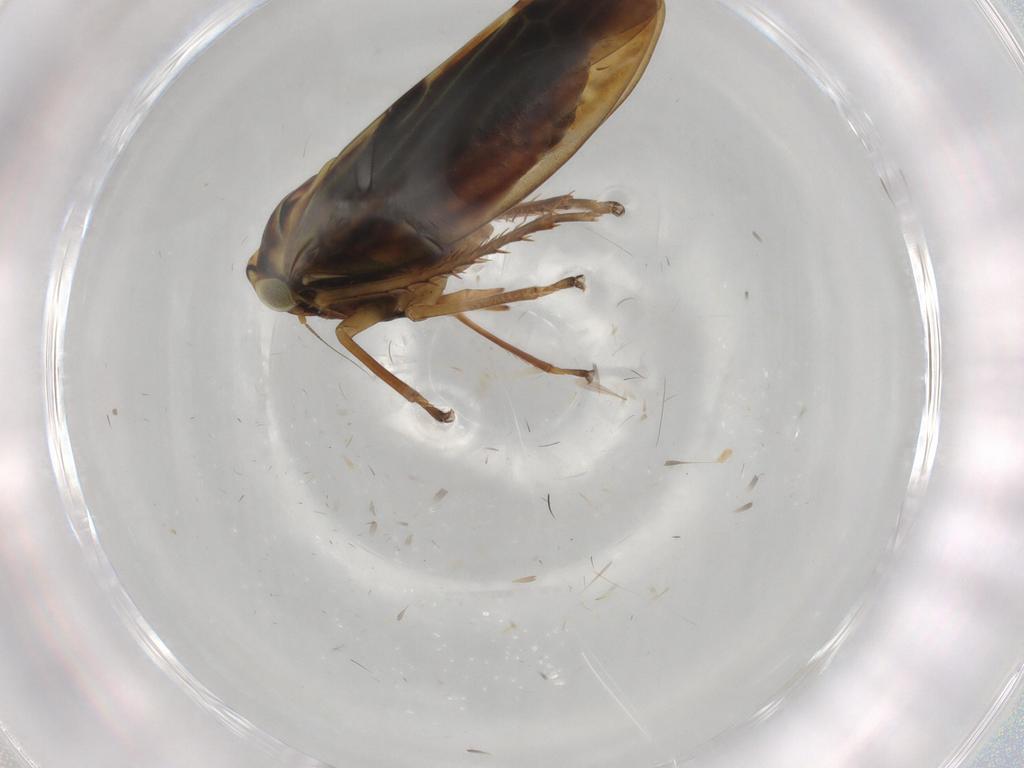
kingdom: Animalia
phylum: Arthropoda
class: Insecta
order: Hemiptera
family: Cicadellidae
